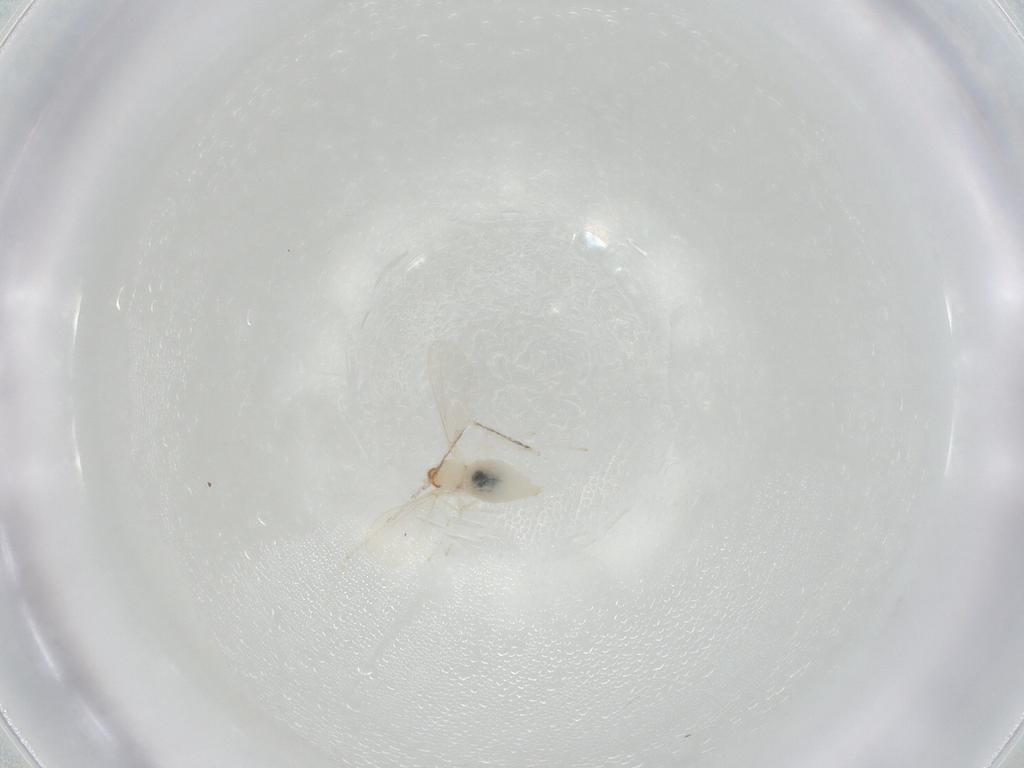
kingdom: Animalia
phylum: Arthropoda
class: Insecta
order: Diptera
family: Cecidomyiidae
